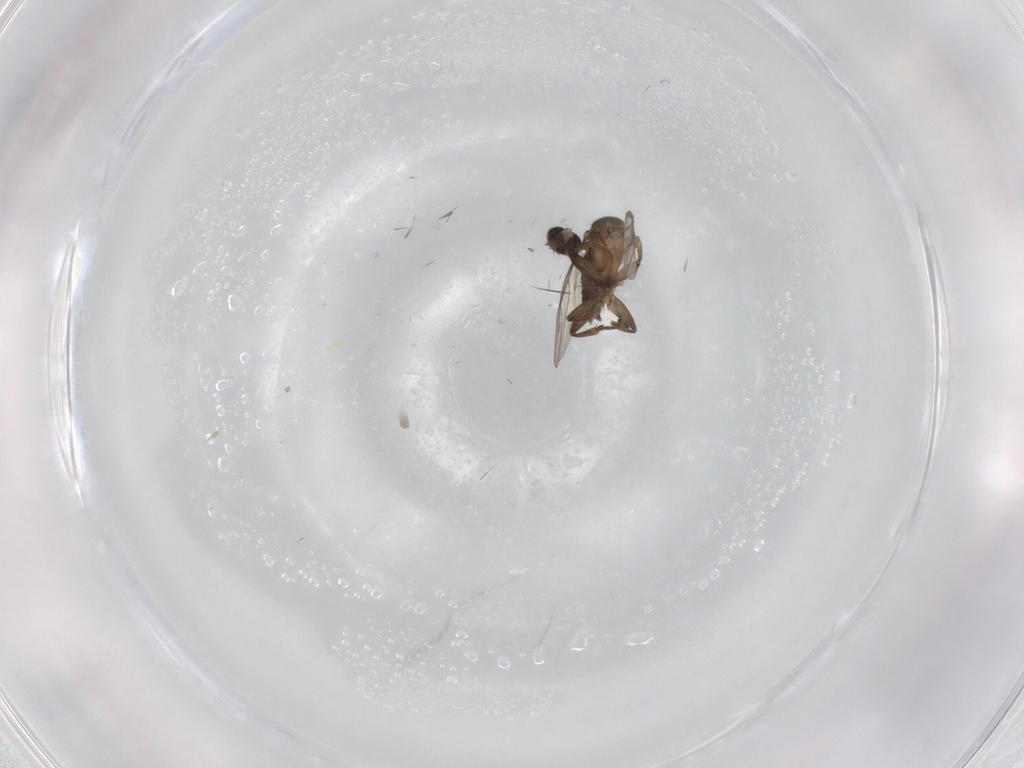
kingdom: Animalia
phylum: Arthropoda
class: Insecta
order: Diptera
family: Phoridae
